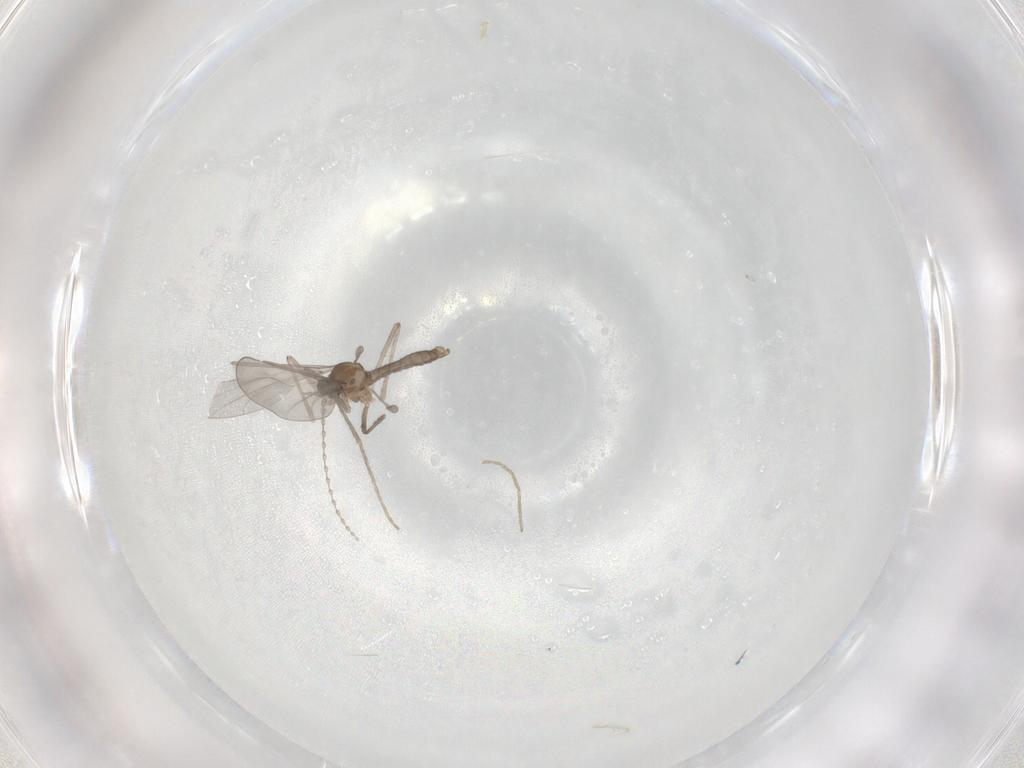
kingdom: Animalia
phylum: Arthropoda
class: Insecta
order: Diptera
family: Cecidomyiidae
